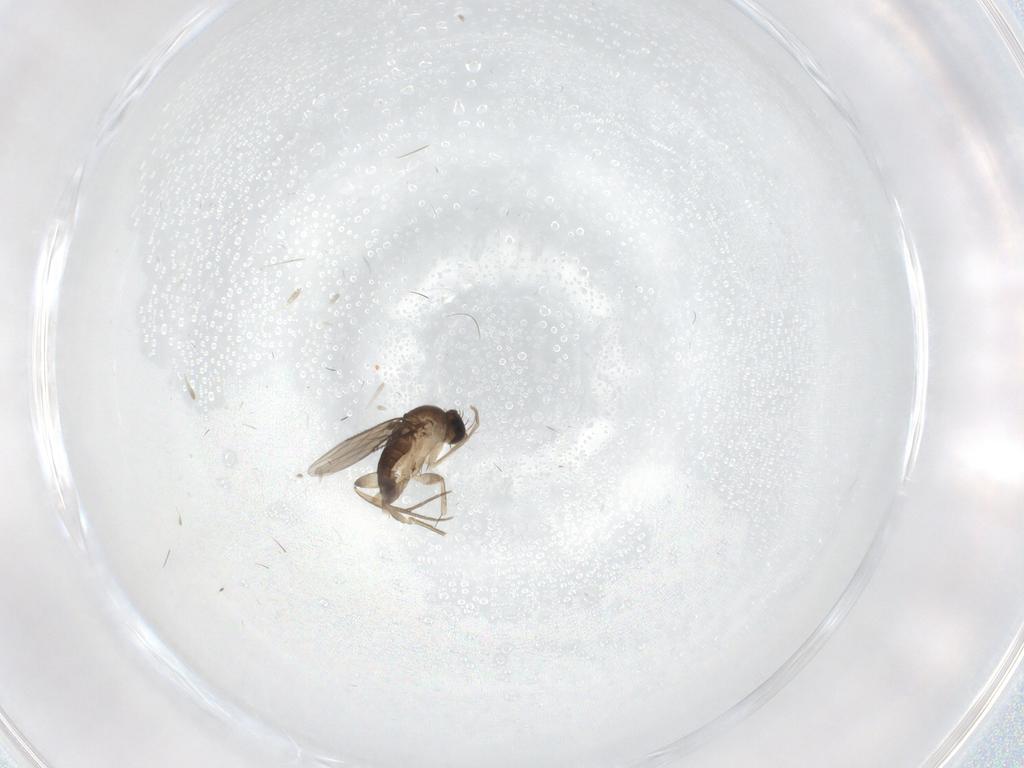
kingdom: Animalia
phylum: Arthropoda
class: Insecta
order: Diptera
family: Phoridae
